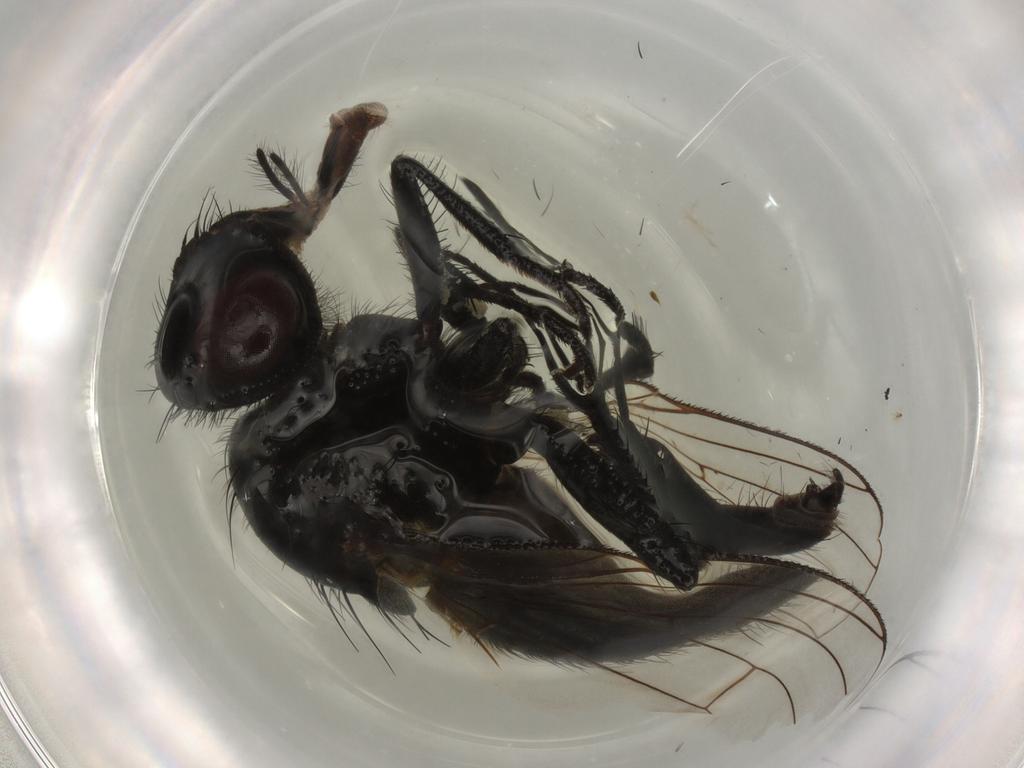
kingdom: Animalia
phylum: Arthropoda
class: Insecta
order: Diptera
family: Muscidae
